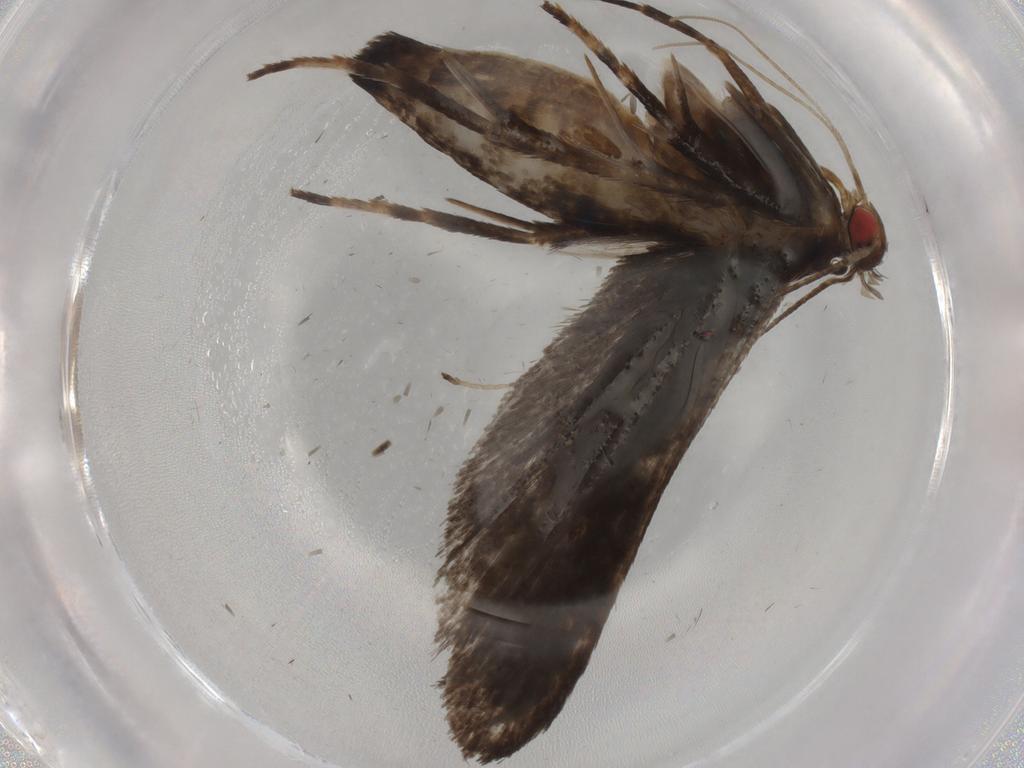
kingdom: Animalia
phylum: Arthropoda
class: Insecta
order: Lepidoptera
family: Gelechiidae
